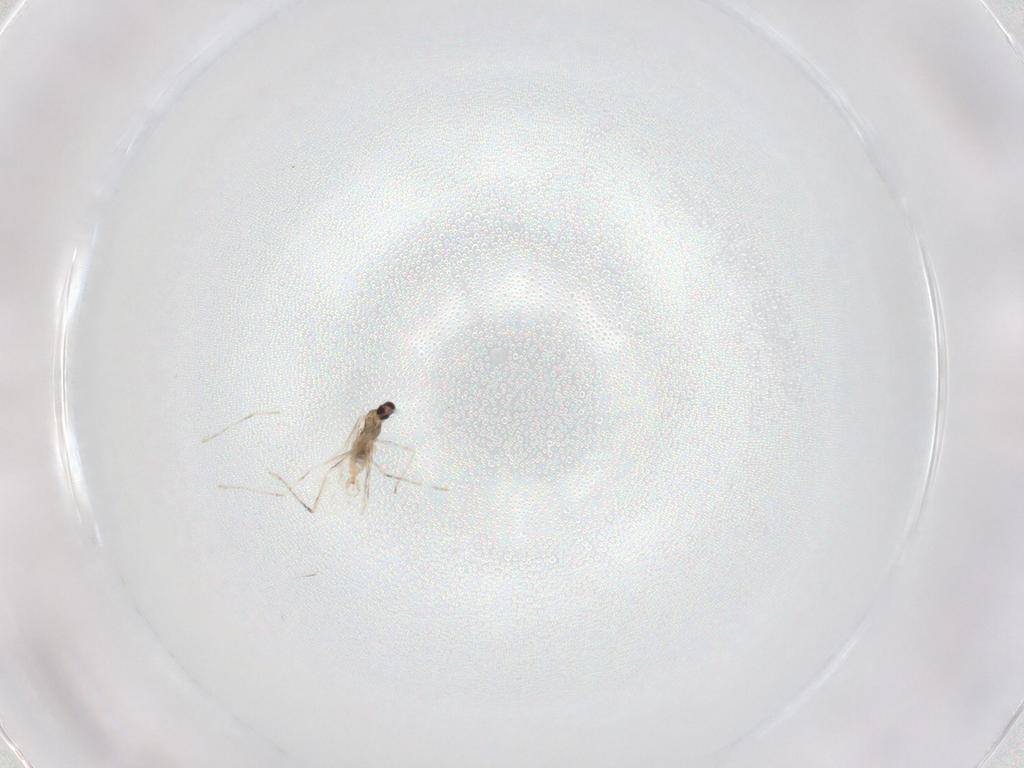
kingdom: Animalia
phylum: Arthropoda
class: Insecta
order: Diptera
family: Cecidomyiidae
